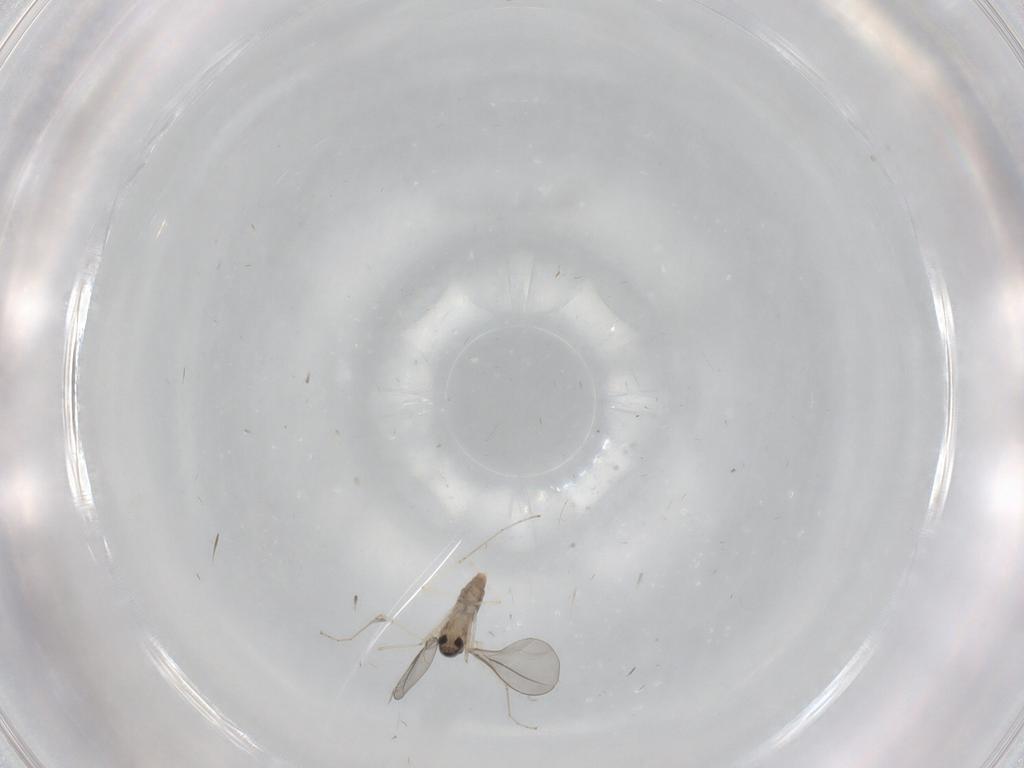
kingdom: Animalia
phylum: Arthropoda
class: Insecta
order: Diptera
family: Cecidomyiidae
